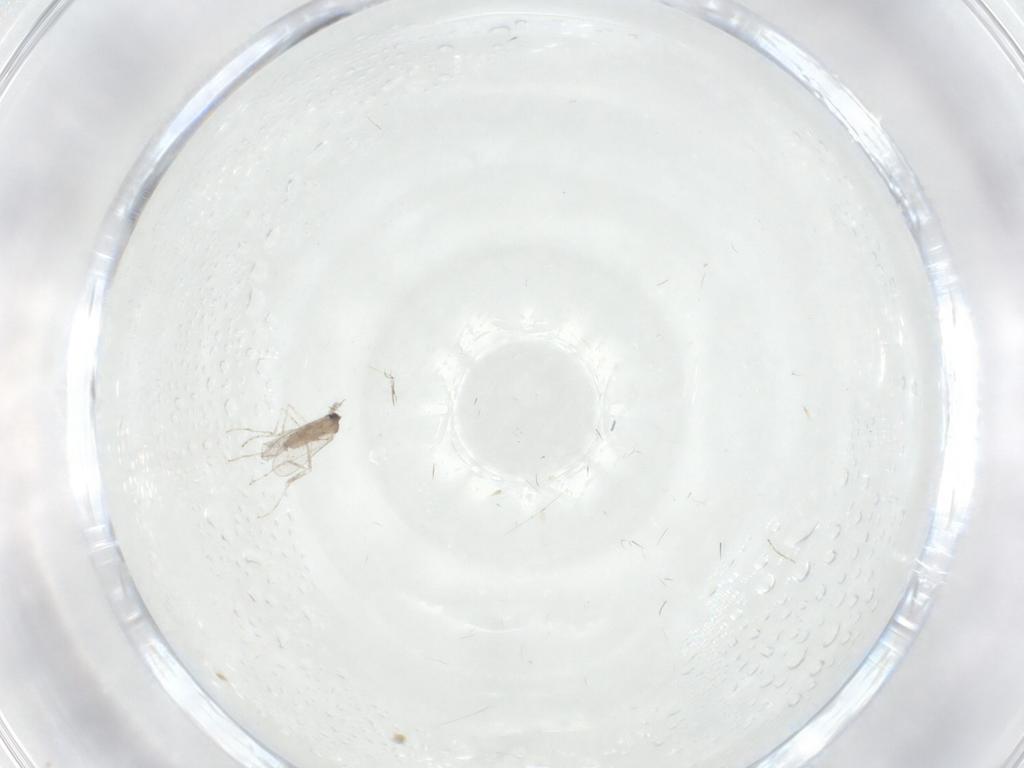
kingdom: Animalia
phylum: Arthropoda
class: Insecta
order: Diptera
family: Cecidomyiidae
